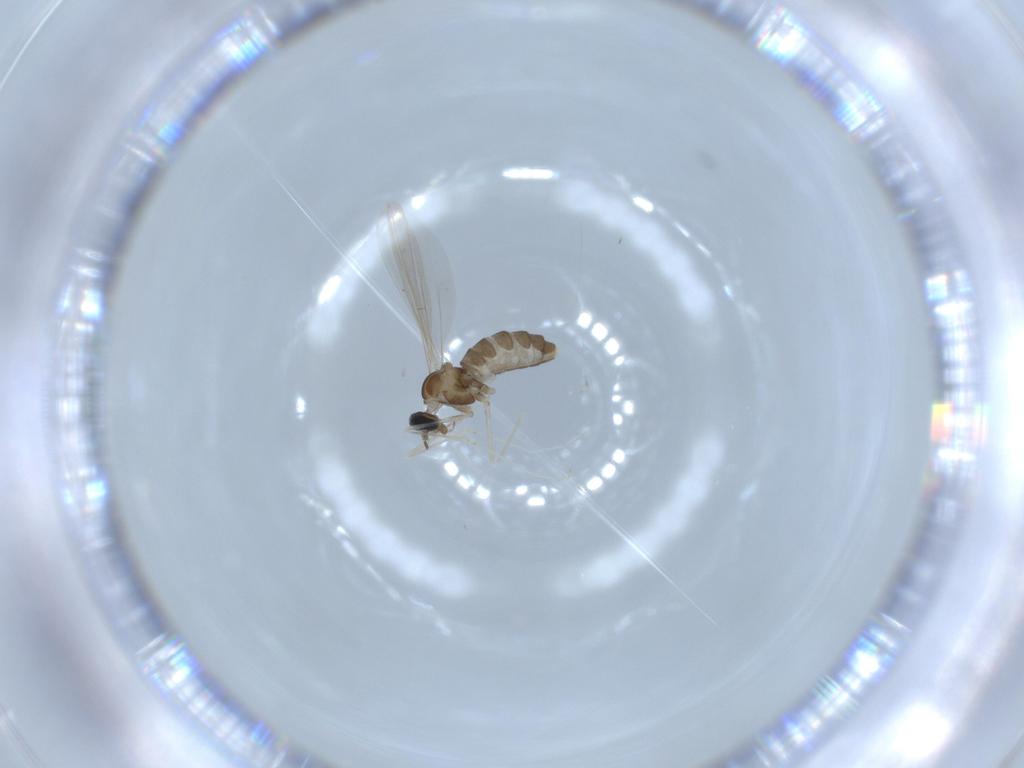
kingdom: Animalia
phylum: Arthropoda
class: Insecta
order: Diptera
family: Cecidomyiidae
